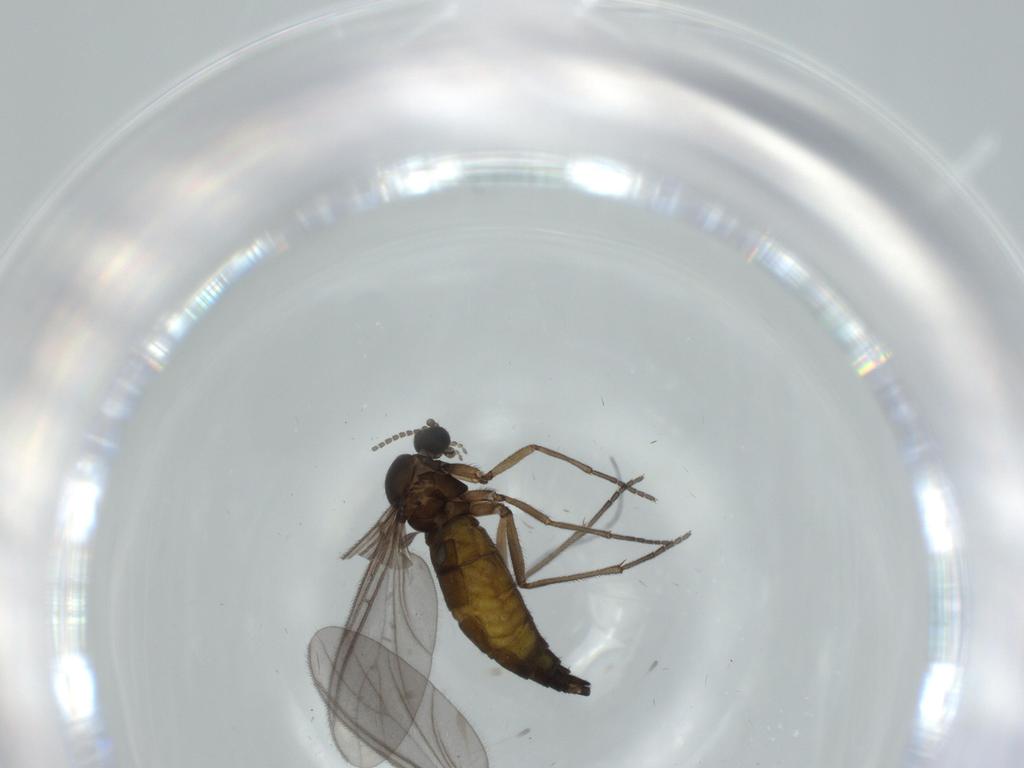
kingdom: Animalia
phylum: Arthropoda
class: Insecta
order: Diptera
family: Sciaridae
